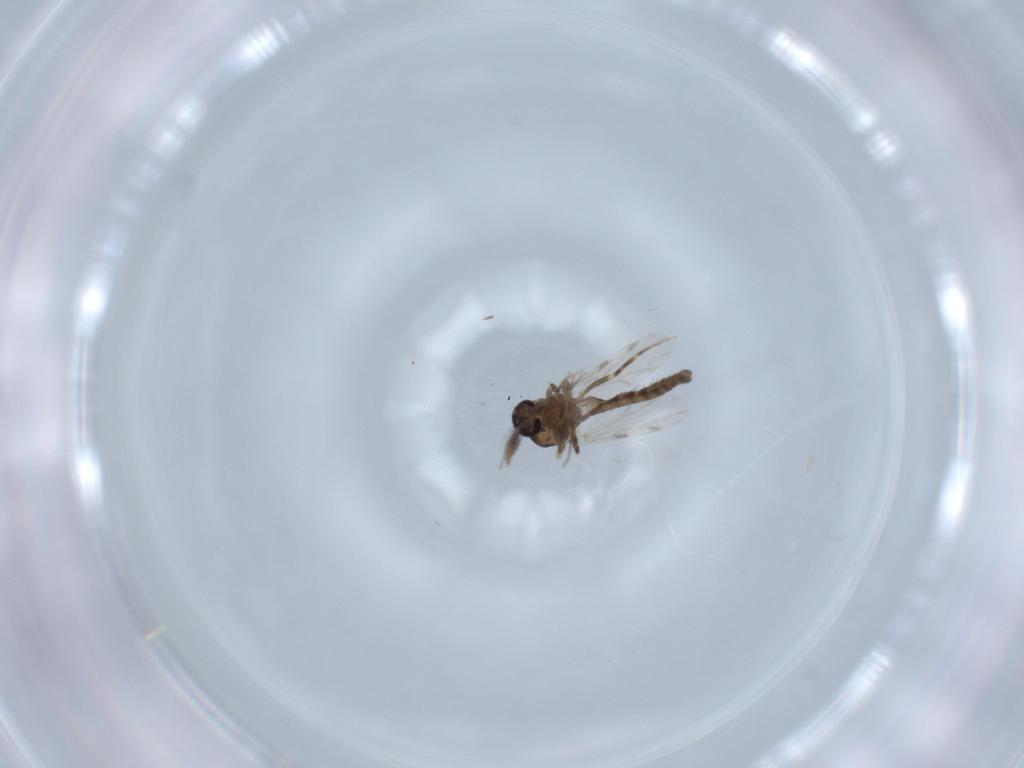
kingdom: Animalia
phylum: Arthropoda
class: Insecta
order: Diptera
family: Ceratopogonidae
